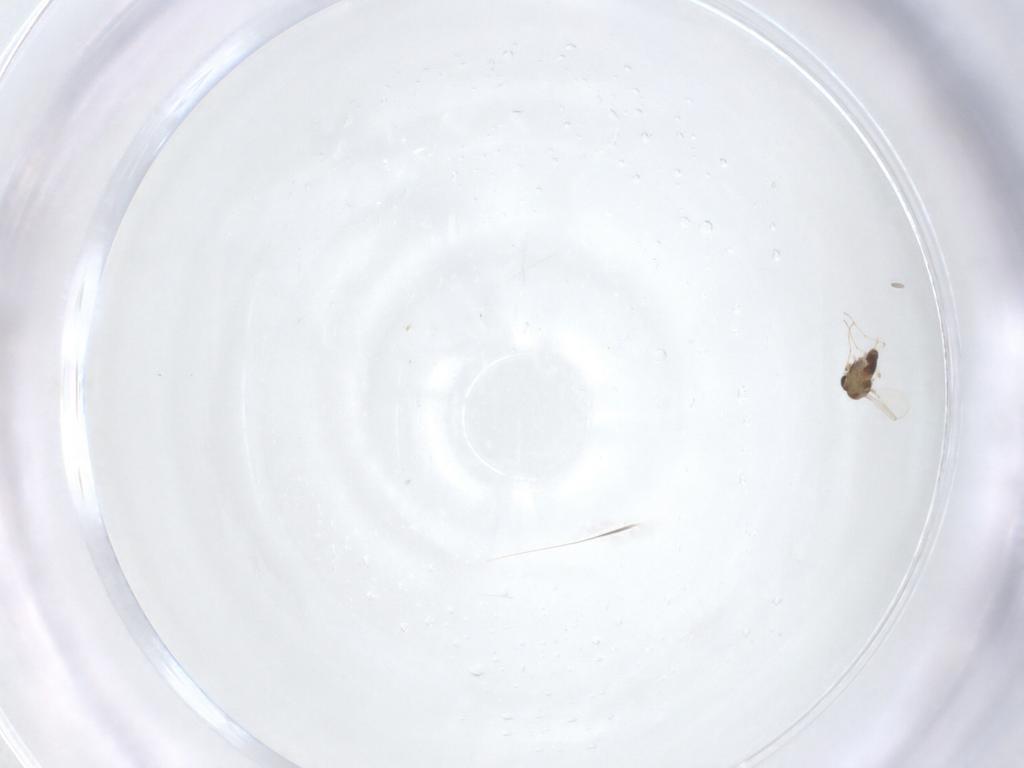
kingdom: Animalia
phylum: Arthropoda
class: Insecta
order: Diptera
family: Chironomidae
